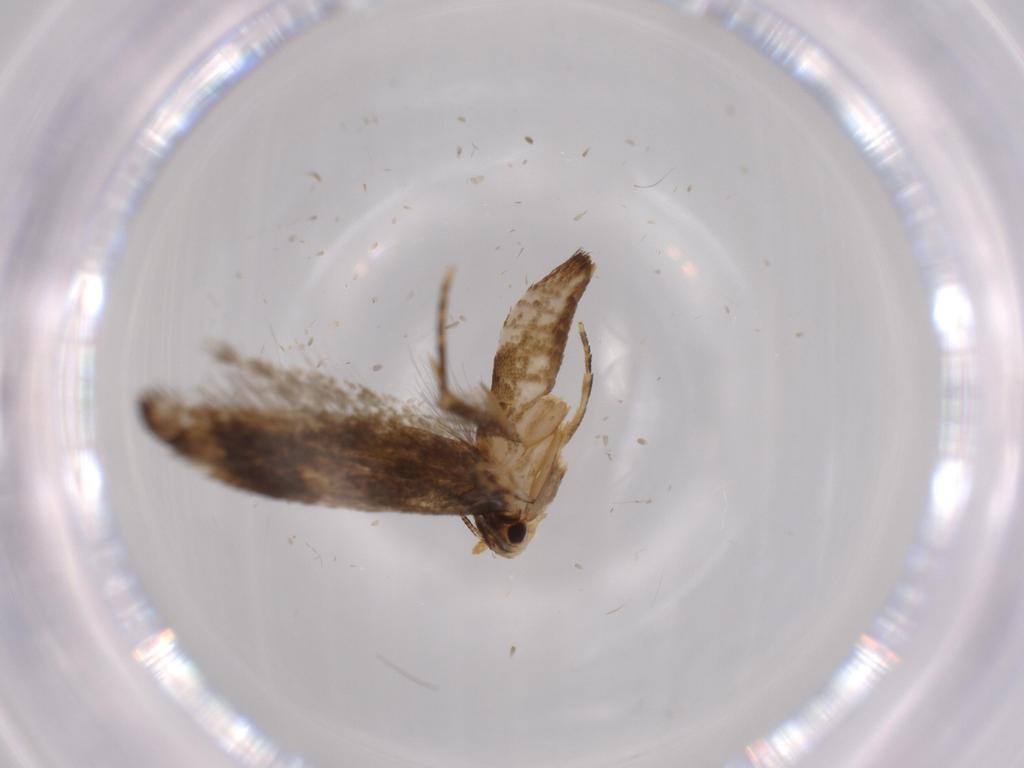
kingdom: Animalia
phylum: Arthropoda
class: Insecta
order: Lepidoptera
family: Tineidae
